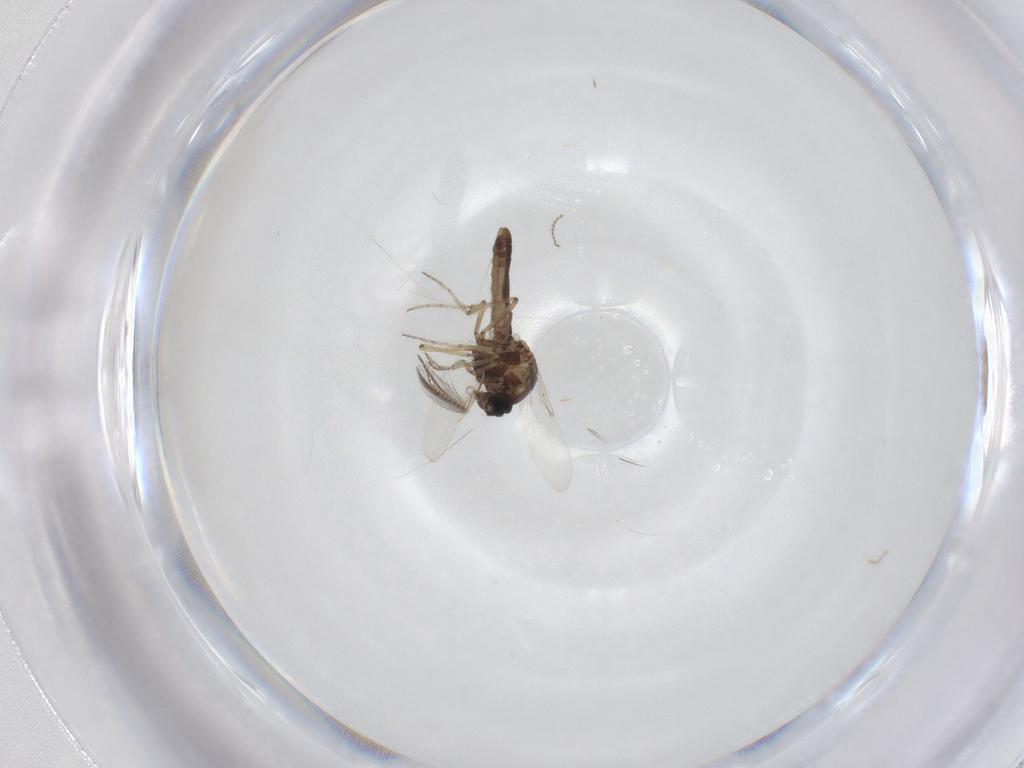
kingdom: Animalia
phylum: Arthropoda
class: Insecta
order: Diptera
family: Ceratopogonidae
